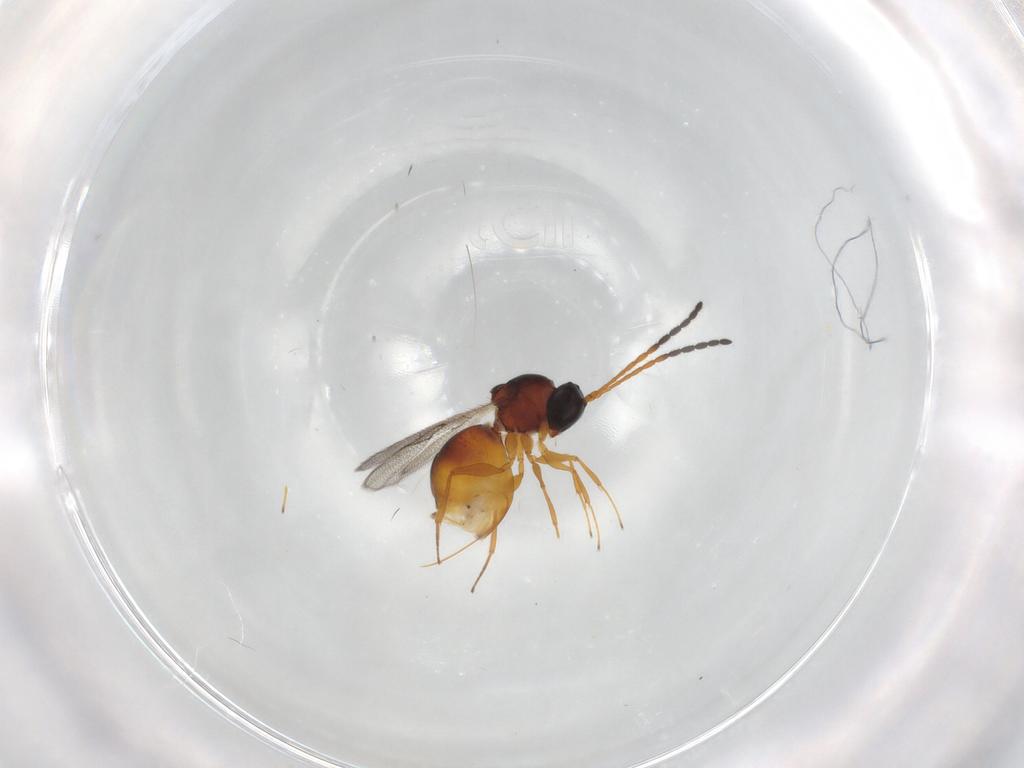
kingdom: Animalia
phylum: Arthropoda
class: Insecta
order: Hymenoptera
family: Figitidae
